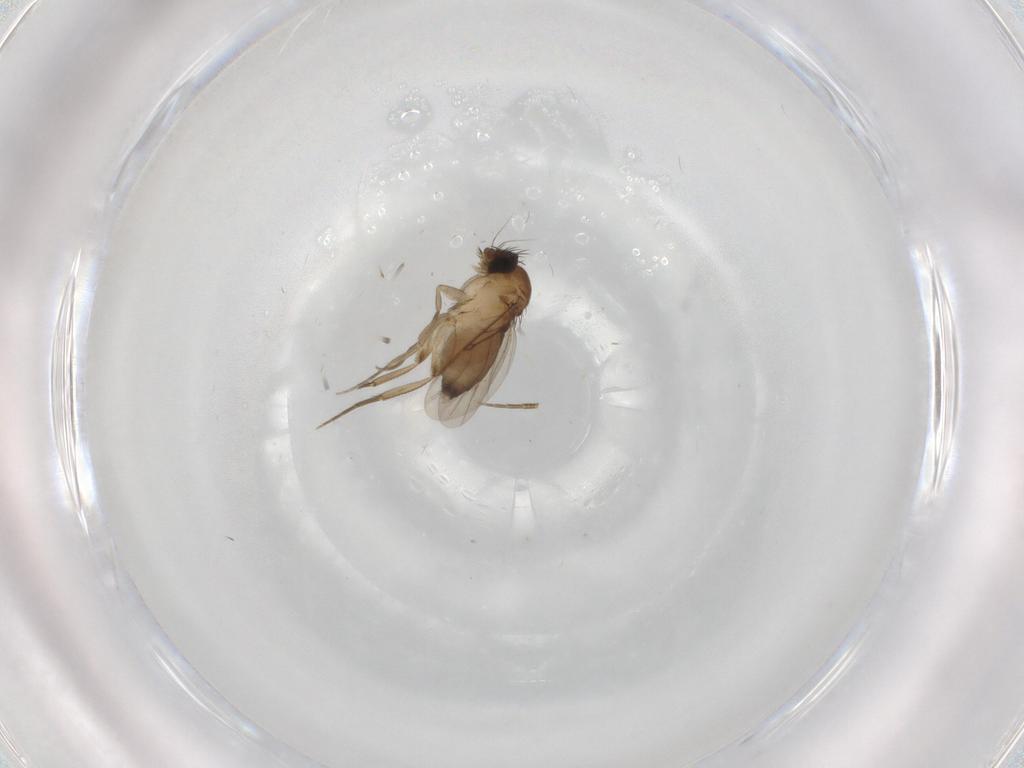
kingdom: Animalia
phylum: Arthropoda
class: Insecta
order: Diptera
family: Phoridae
